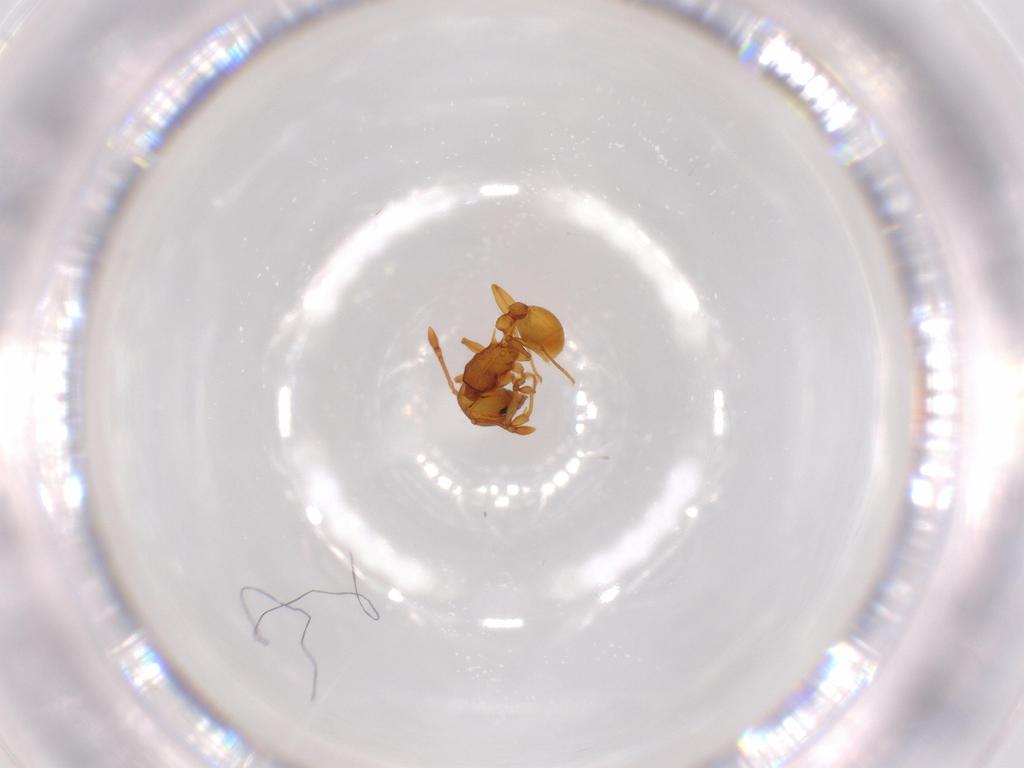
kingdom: Animalia
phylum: Arthropoda
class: Insecta
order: Hymenoptera
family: Formicidae
